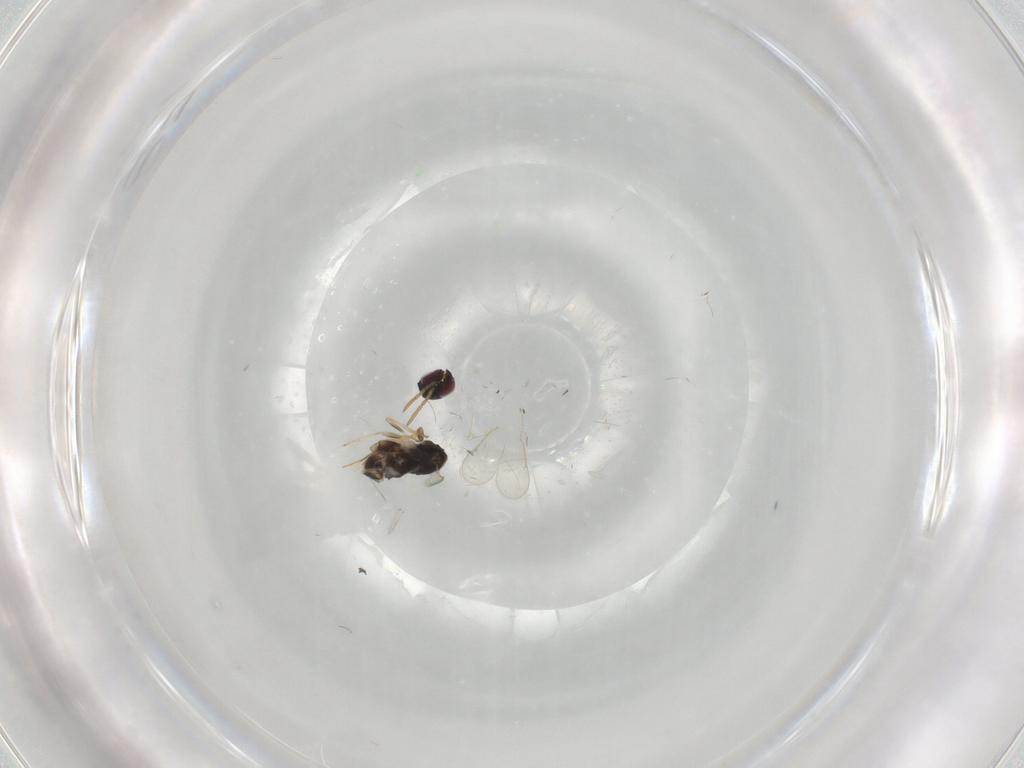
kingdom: Animalia
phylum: Arthropoda
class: Insecta
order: Hymenoptera
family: Aphelinidae
